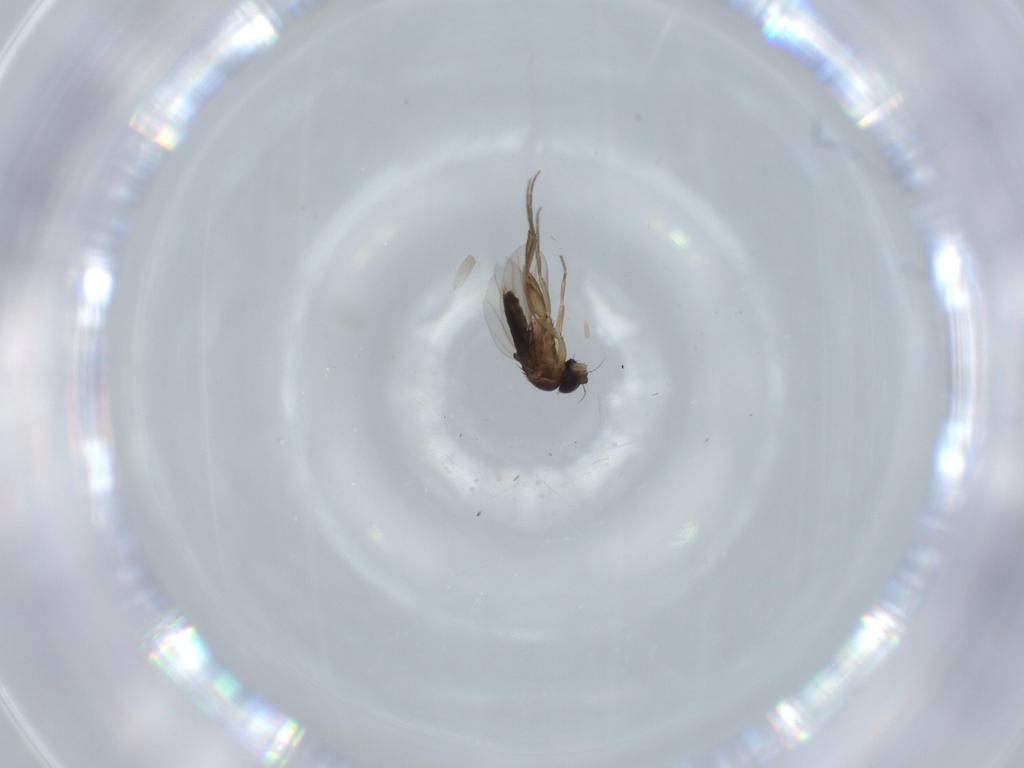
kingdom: Animalia
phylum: Arthropoda
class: Insecta
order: Diptera
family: Phoridae
